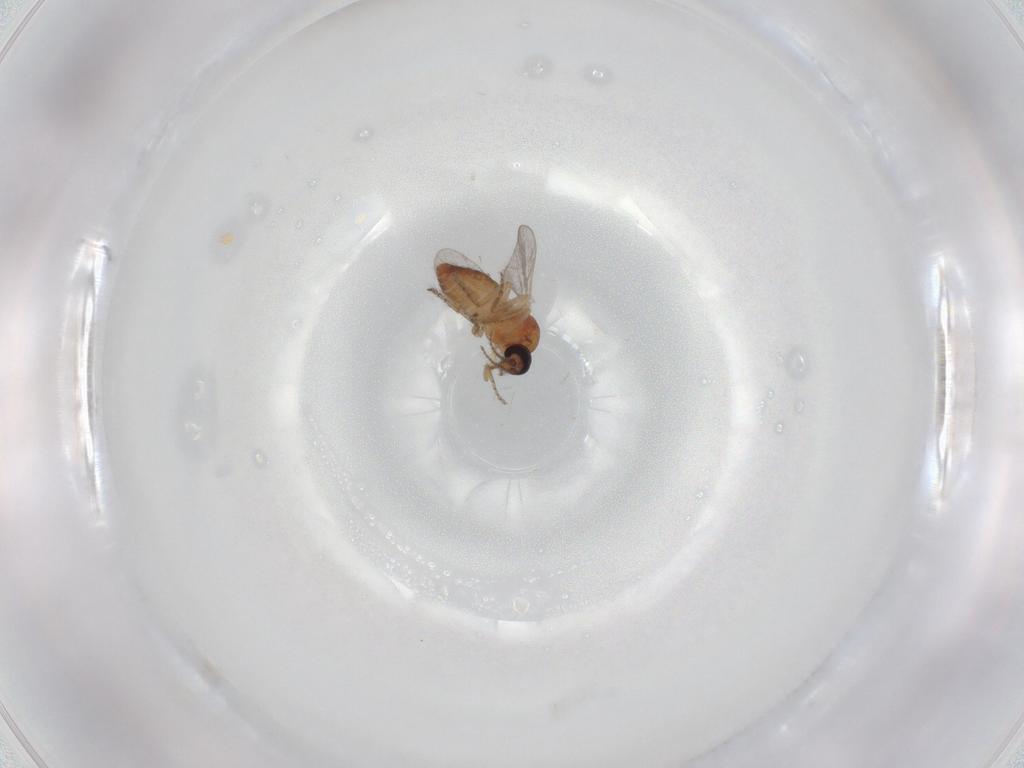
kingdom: Animalia
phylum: Arthropoda
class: Insecta
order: Diptera
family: Ceratopogonidae
